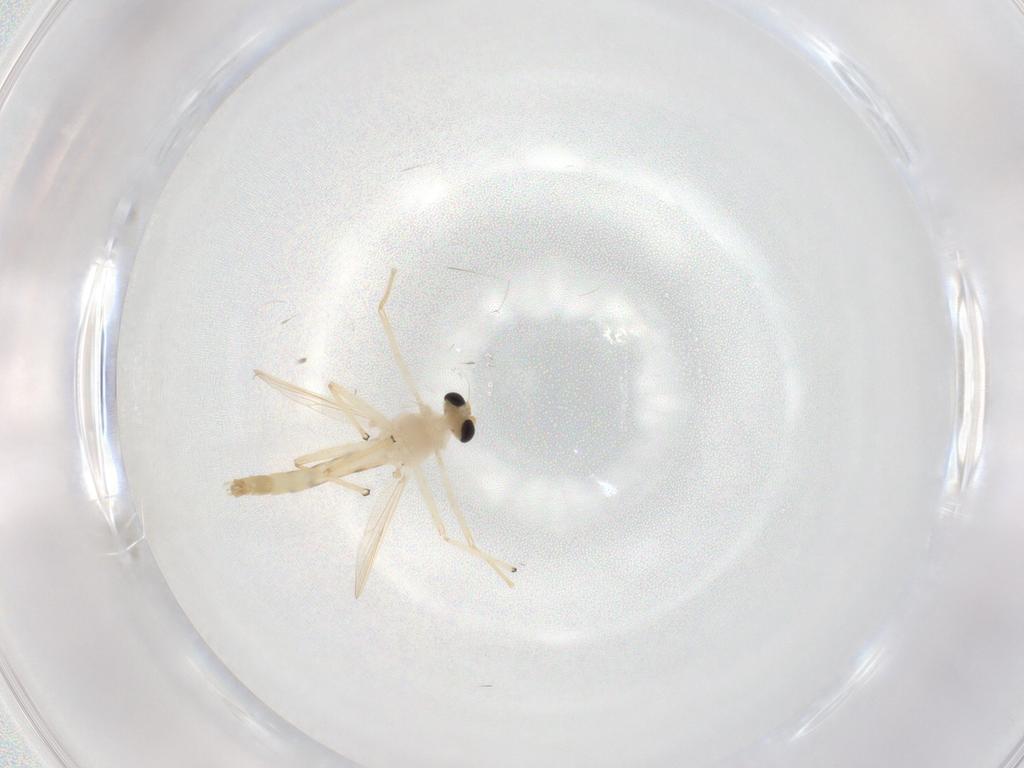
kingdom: Animalia
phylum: Arthropoda
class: Insecta
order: Diptera
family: Chironomidae
